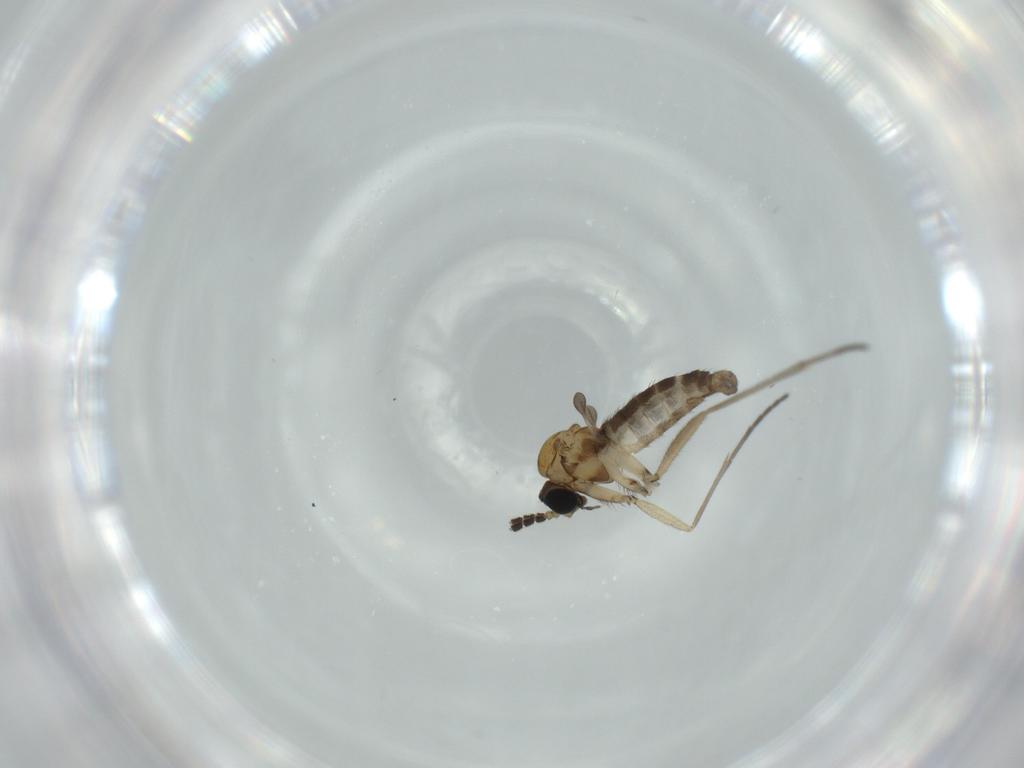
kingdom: Animalia
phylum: Arthropoda
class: Insecta
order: Diptera
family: Sciaridae
